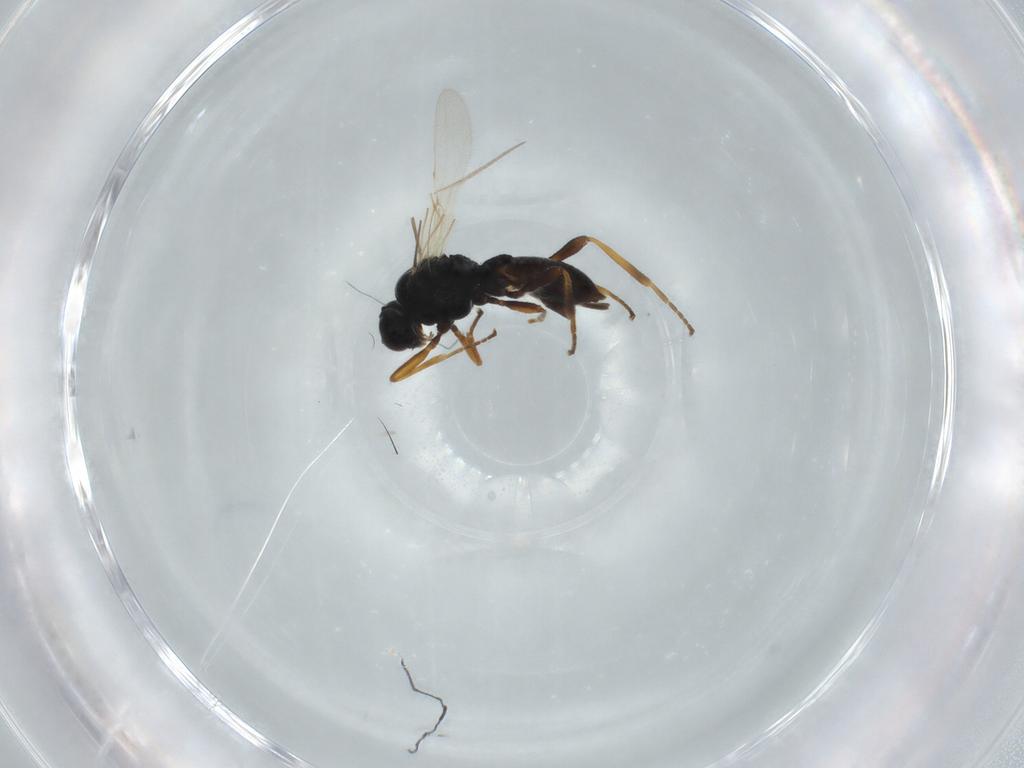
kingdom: Animalia
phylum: Arthropoda
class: Insecta
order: Hymenoptera
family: Braconidae
